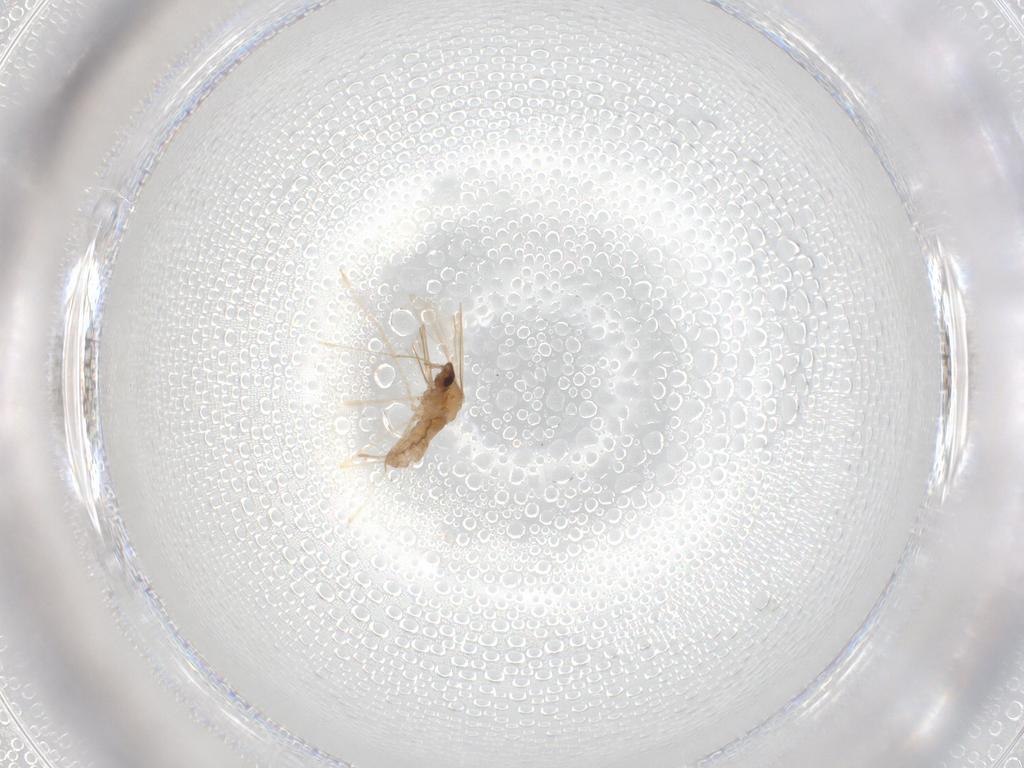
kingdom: Animalia
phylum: Arthropoda
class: Insecta
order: Diptera
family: Cecidomyiidae
